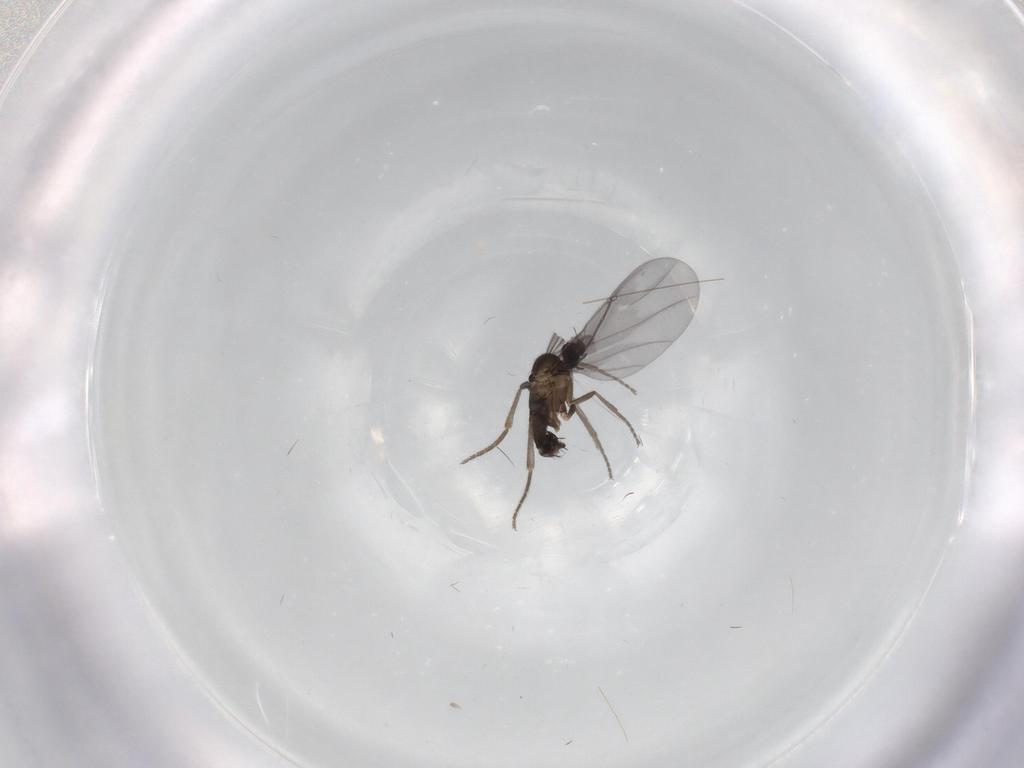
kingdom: Animalia
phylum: Arthropoda
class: Insecta
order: Diptera
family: Phoridae
